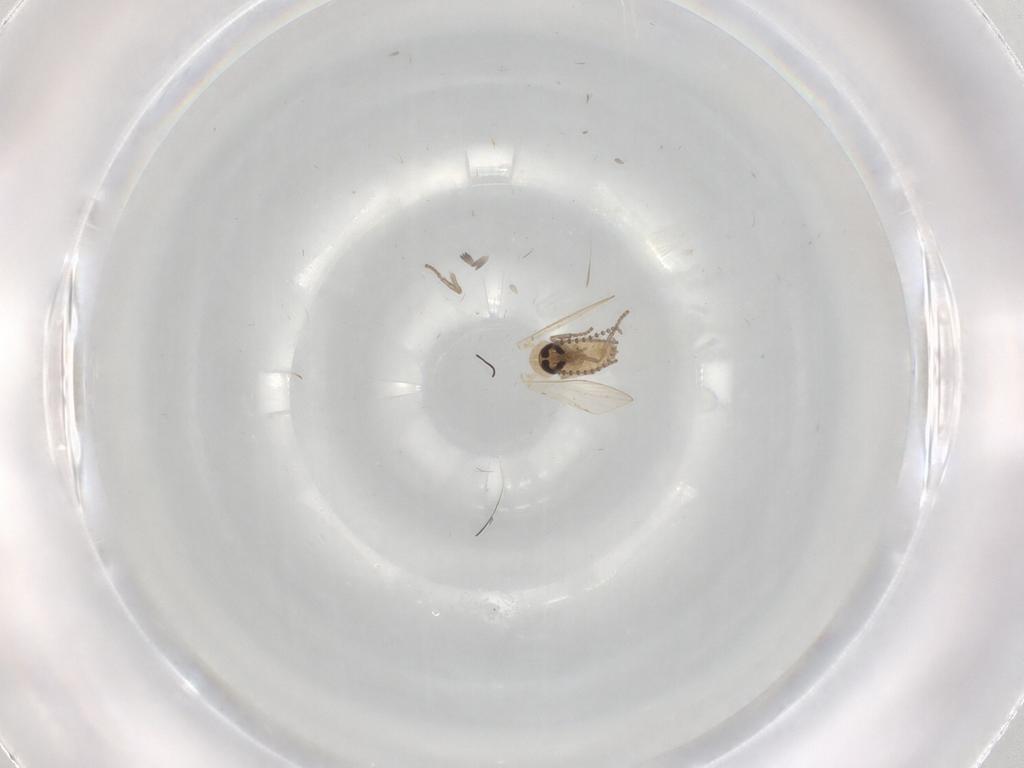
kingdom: Animalia
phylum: Arthropoda
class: Insecta
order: Diptera
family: Psychodidae
